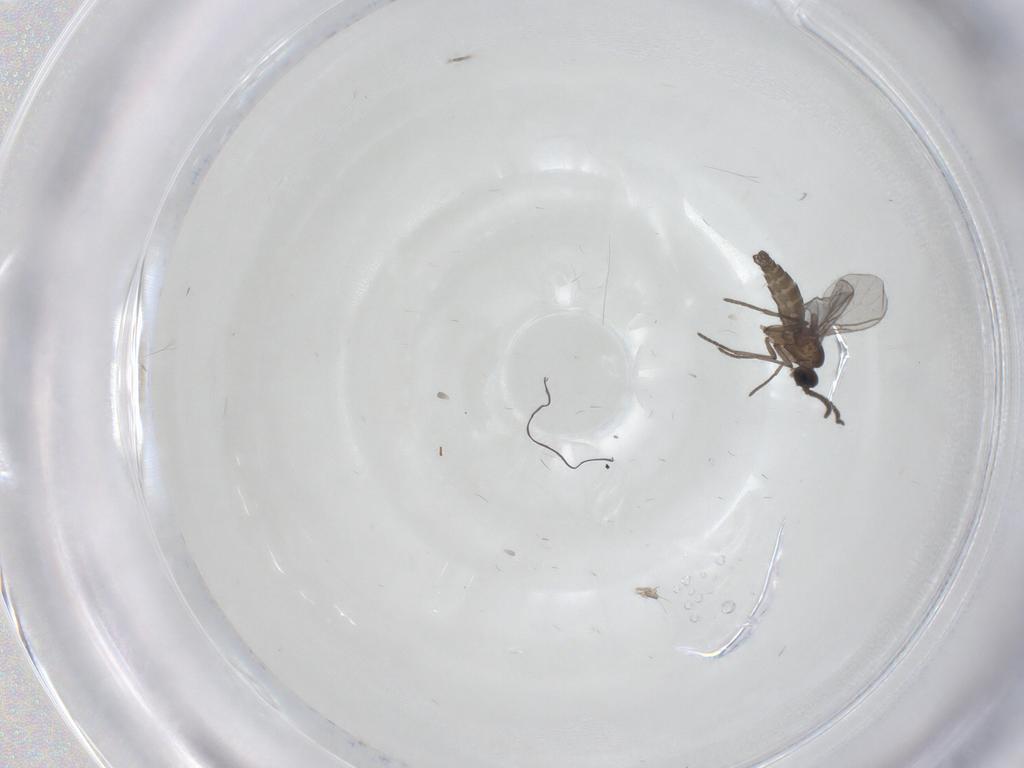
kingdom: Animalia
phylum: Arthropoda
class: Insecta
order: Diptera
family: Sciaridae
